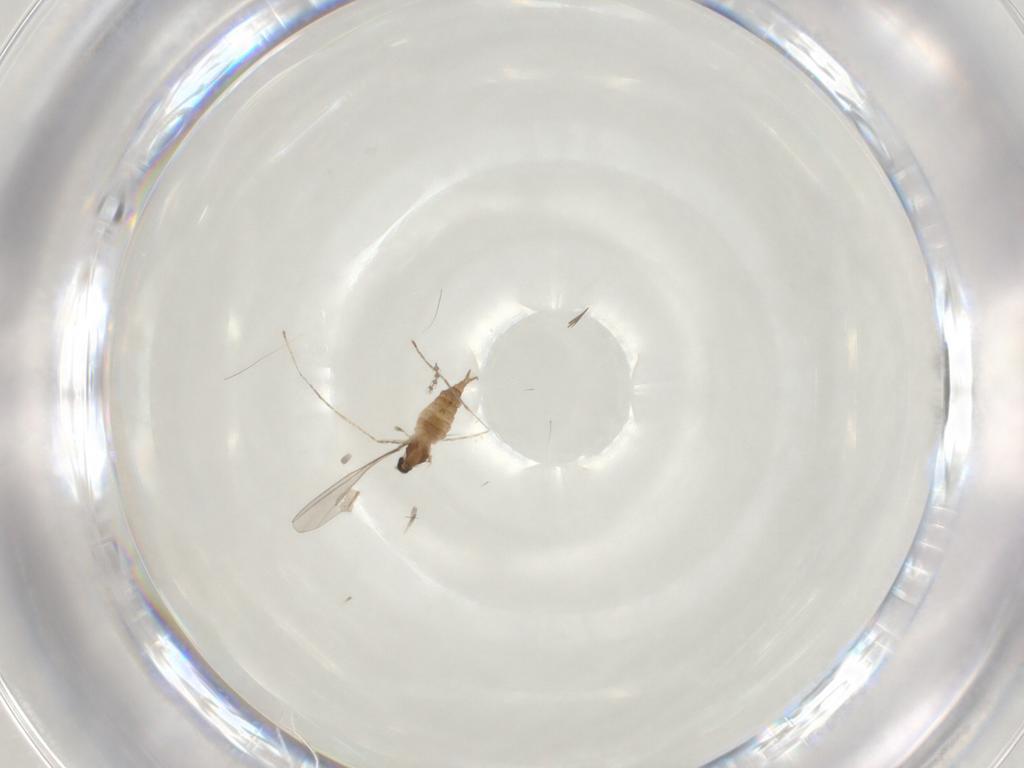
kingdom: Animalia
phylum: Arthropoda
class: Insecta
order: Diptera
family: Cecidomyiidae
